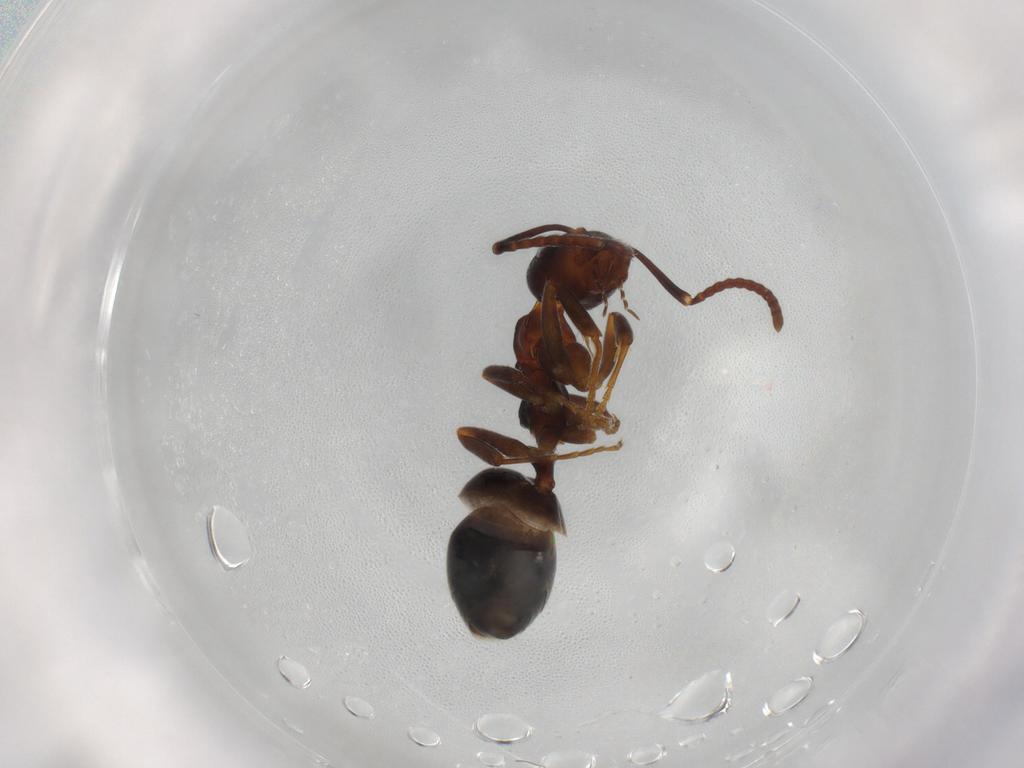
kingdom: Animalia
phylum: Arthropoda
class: Insecta
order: Hymenoptera
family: Formicidae
